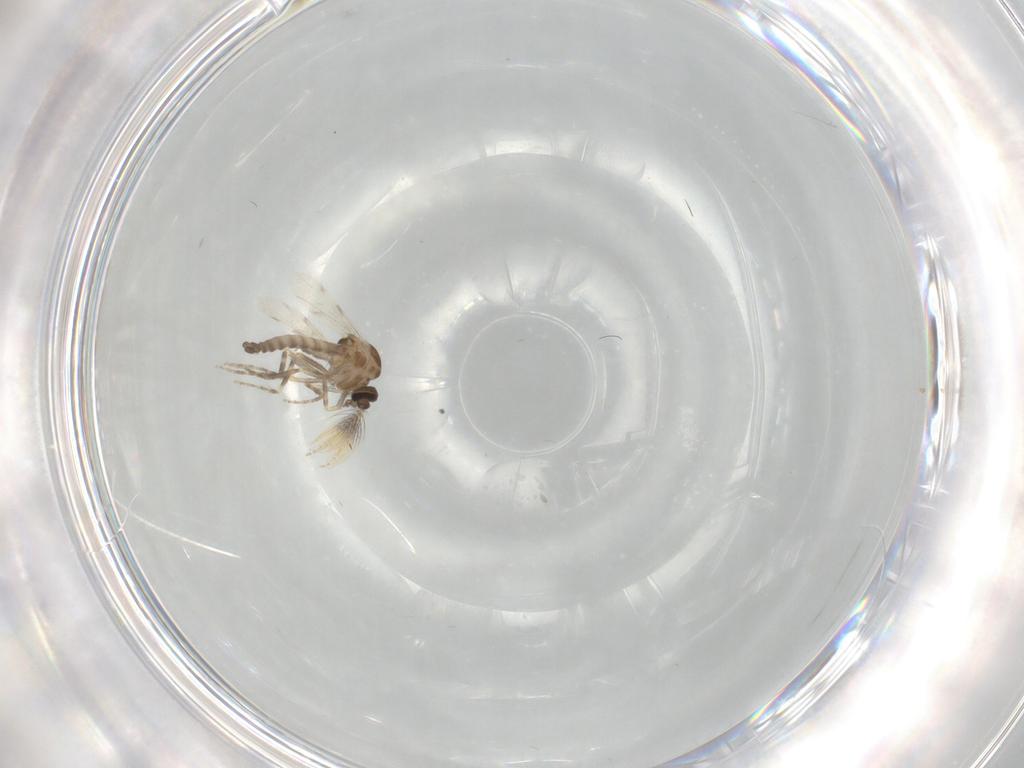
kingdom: Animalia
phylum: Arthropoda
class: Insecta
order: Diptera
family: Ceratopogonidae
